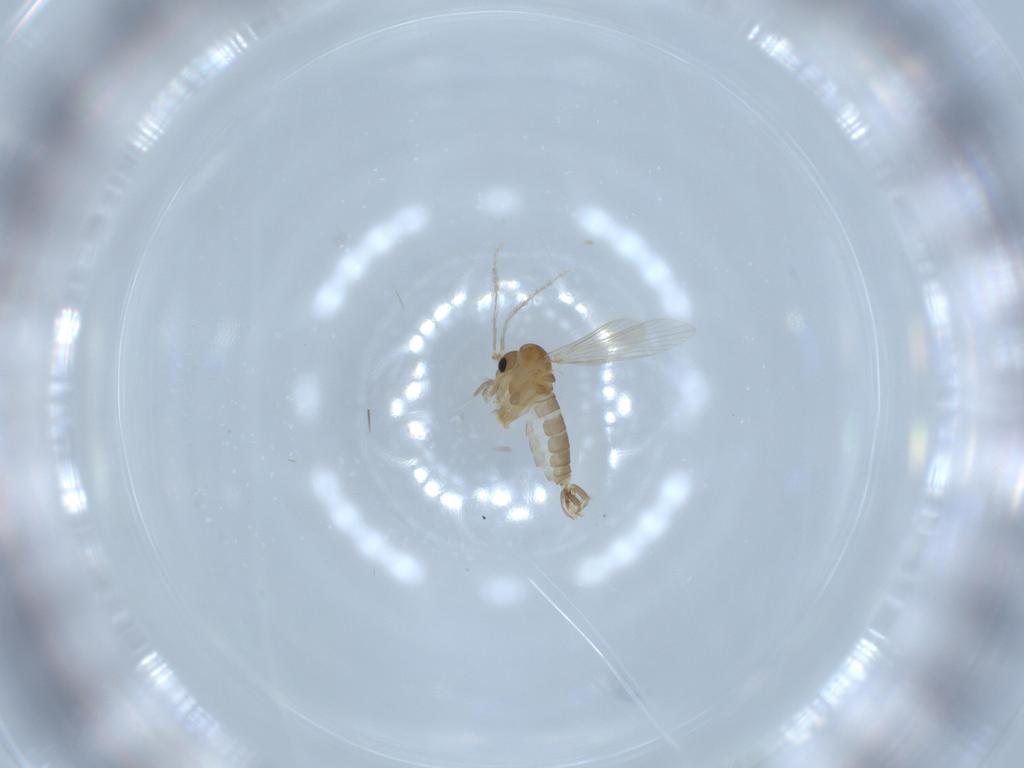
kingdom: Animalia
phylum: Arthropoda
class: Insecta
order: Diptera
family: Psychodidae
